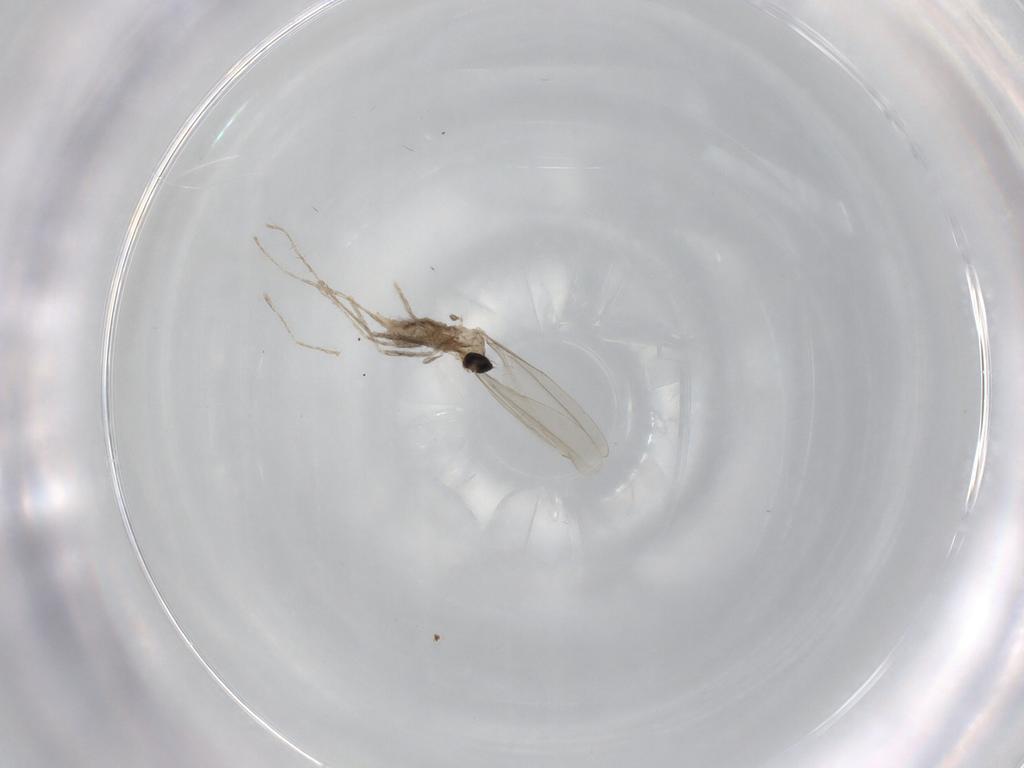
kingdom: Animalia
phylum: Arthropoda
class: Insecta
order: Diptera
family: Cecidomyiidae
